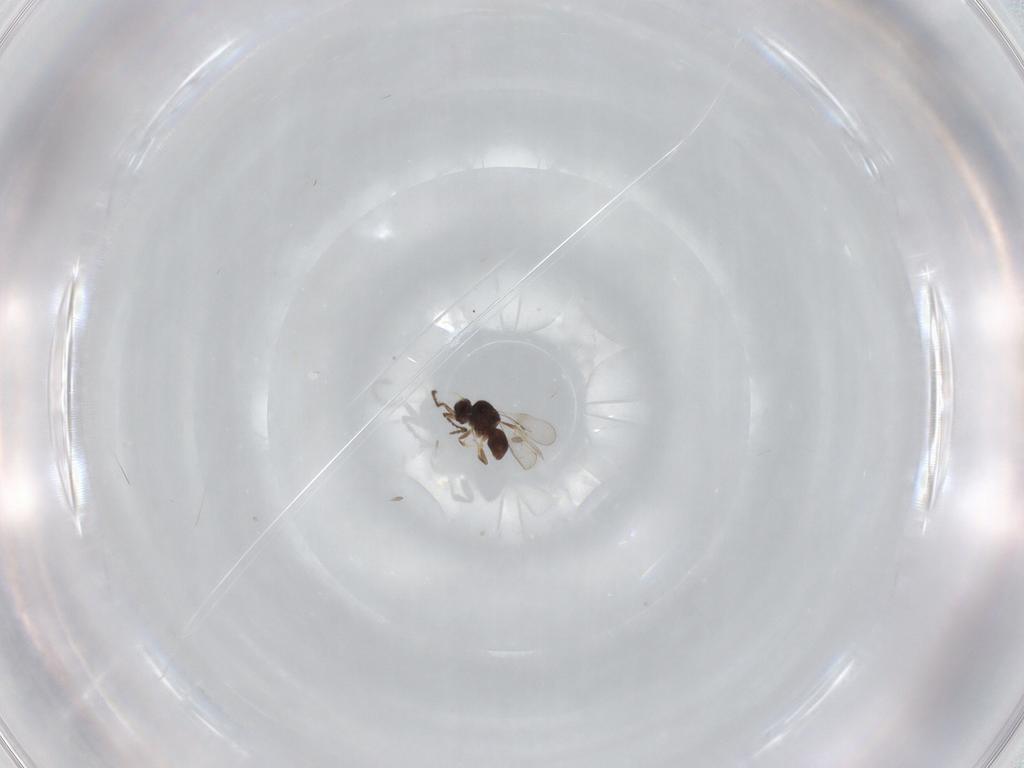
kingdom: Animalia
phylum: Arthropoda
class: Insecta
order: Hymenoptera
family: Formicidae
